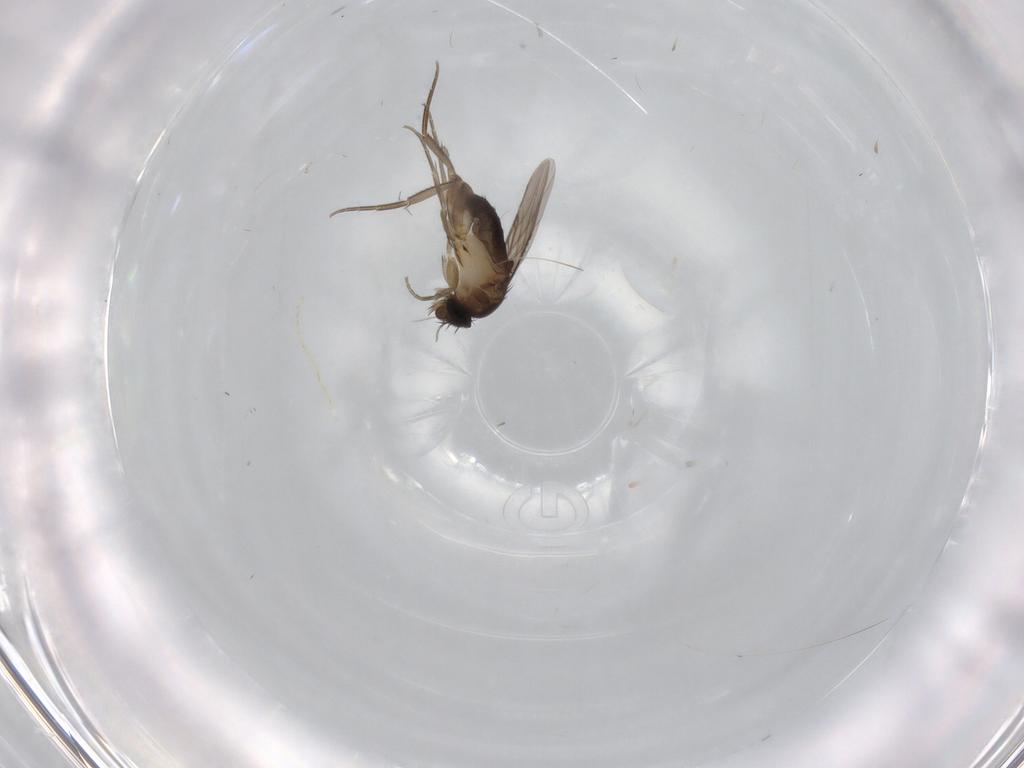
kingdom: Animalia
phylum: Arthropoda
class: Insecta
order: Diptera
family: Phoridae
